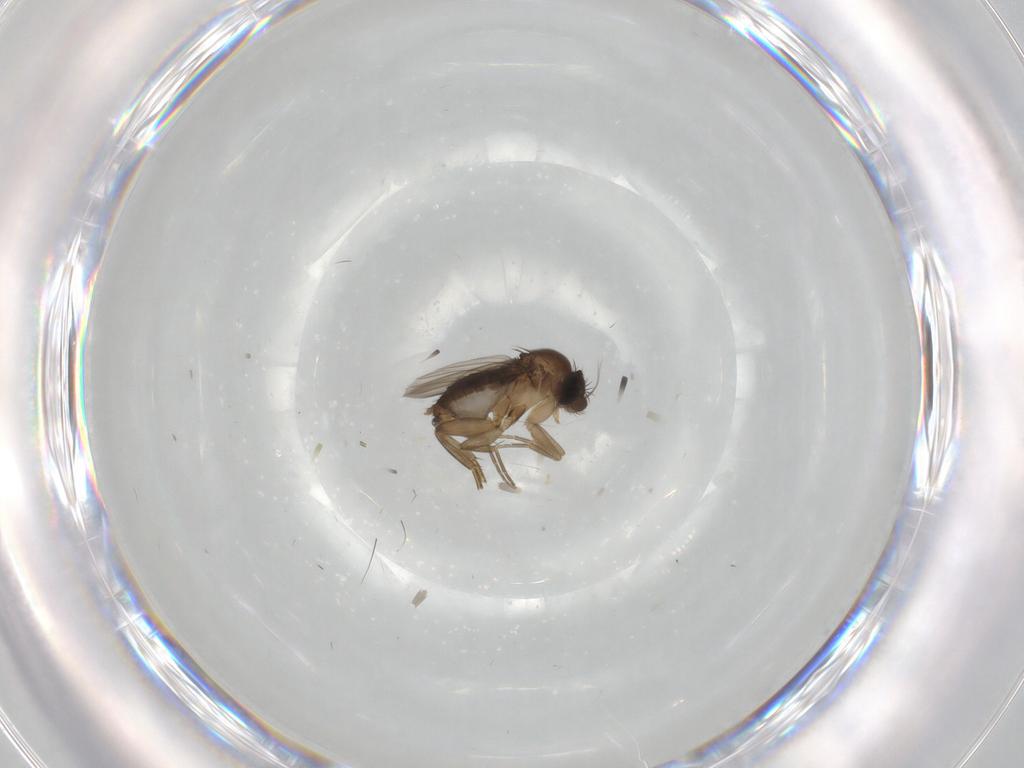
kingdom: Animalia
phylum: Arthropoda
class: Insecta
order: Diptera
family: Phoridae
